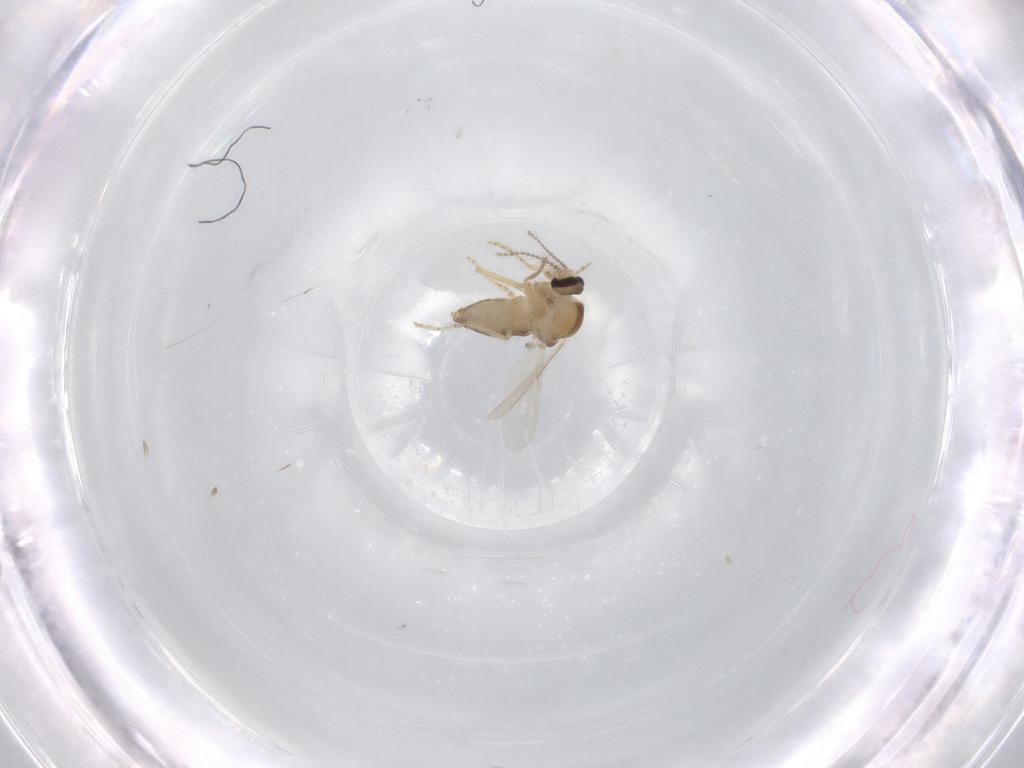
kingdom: Animalia
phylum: Arthropoda
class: Insecta
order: Diptera
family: Ceratopogonidae
